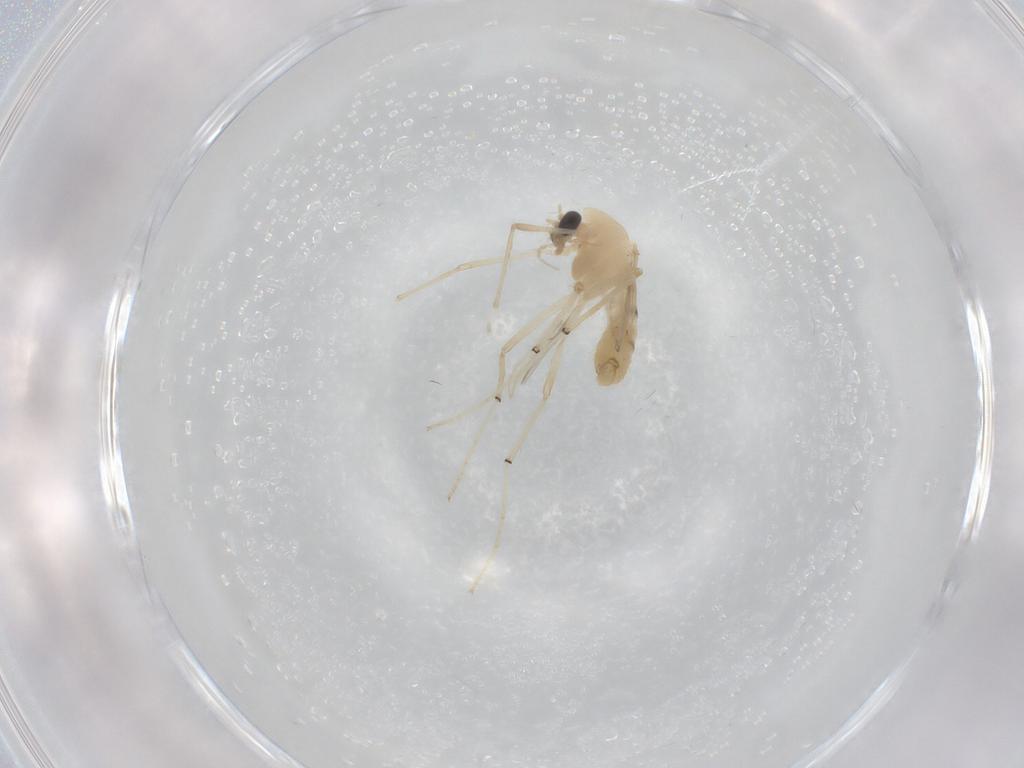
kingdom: Animalia
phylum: Arthropoda
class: Insecta
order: Diptera
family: Chironomidae
